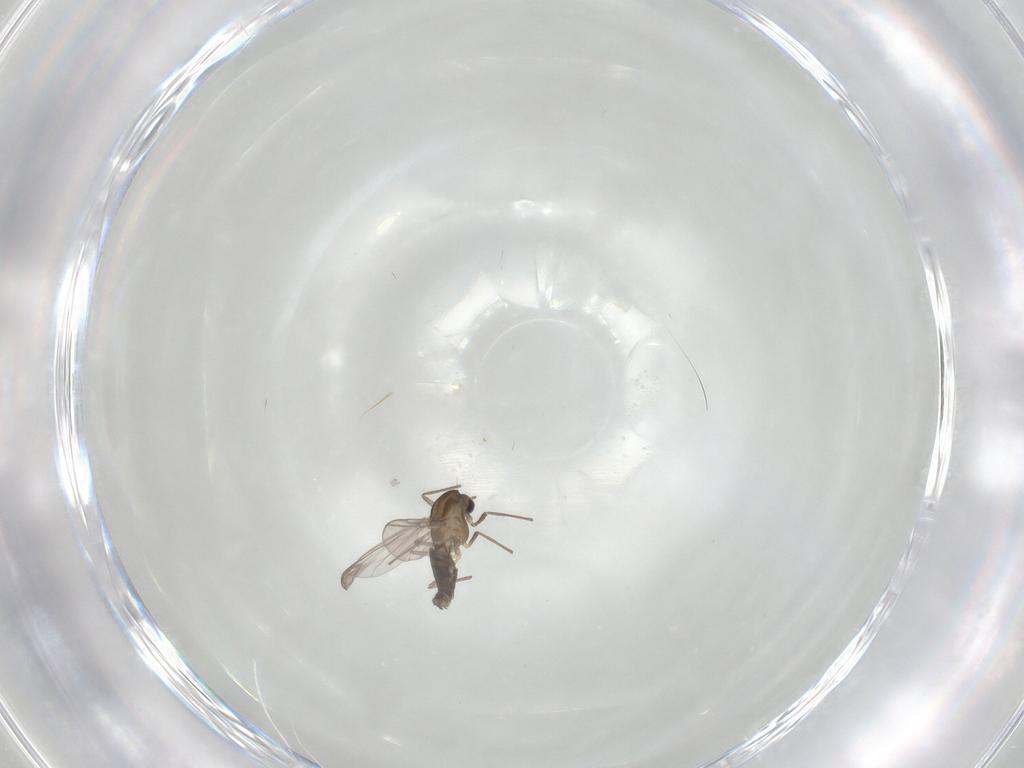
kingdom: Animalia
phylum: Arthropoda
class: Insecta
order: Diptera
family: Chironomidae
